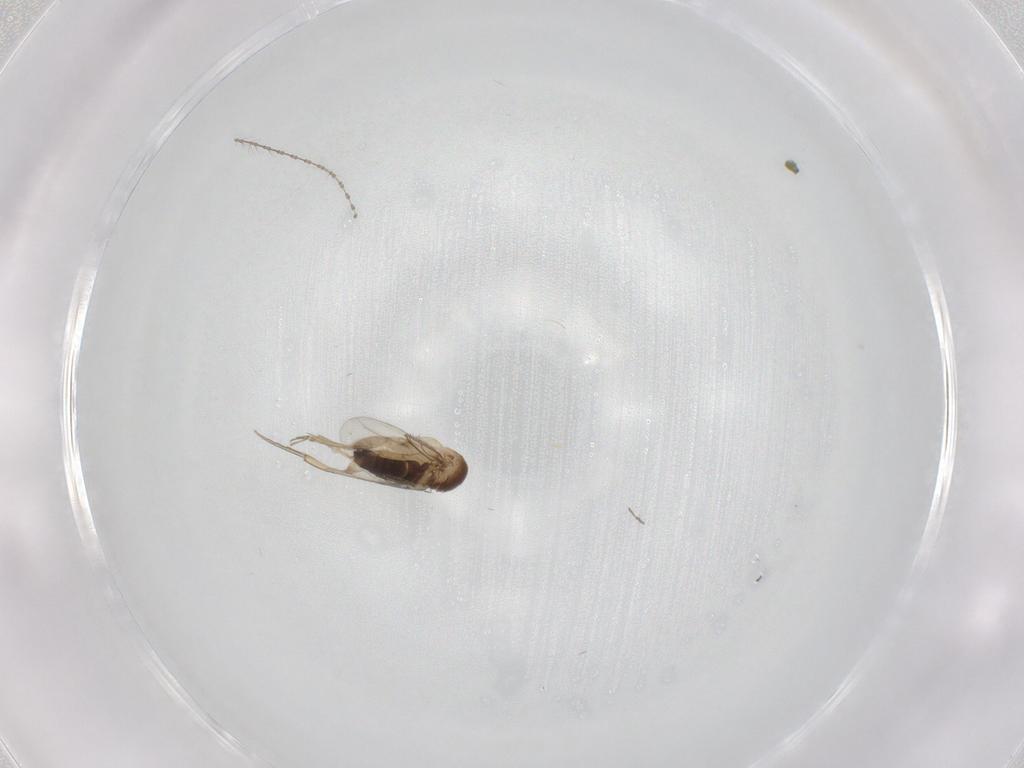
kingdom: Animalia
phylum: Arthropoda
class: Insecta
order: Diptera
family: Phoridae
